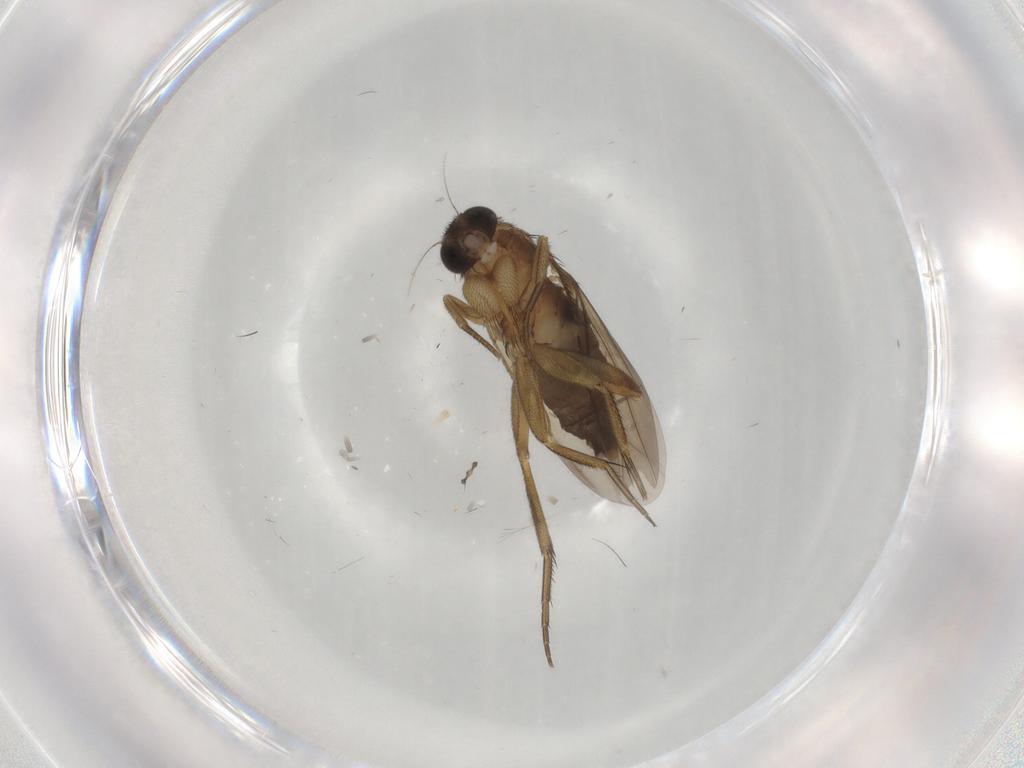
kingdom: Animalia
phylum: Arthropoda
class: Insecta
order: Diptera
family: Phoridae
